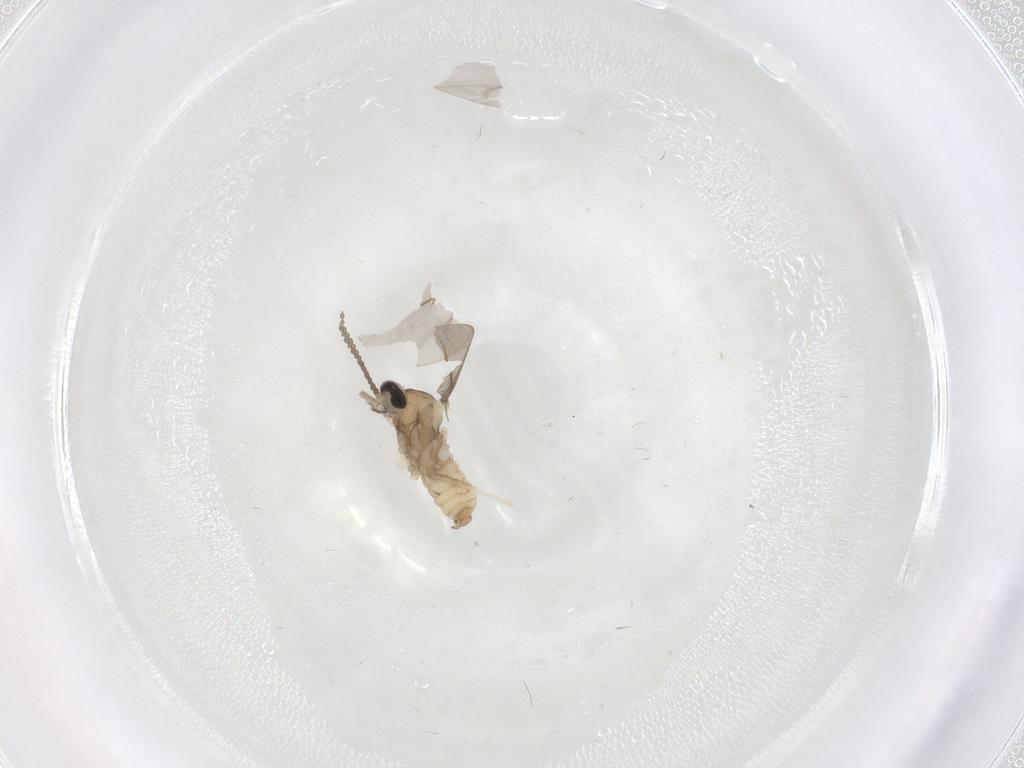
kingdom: Animalia
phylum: Arthropoda
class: Insecta
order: Diptera
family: Cecidomyiidae
